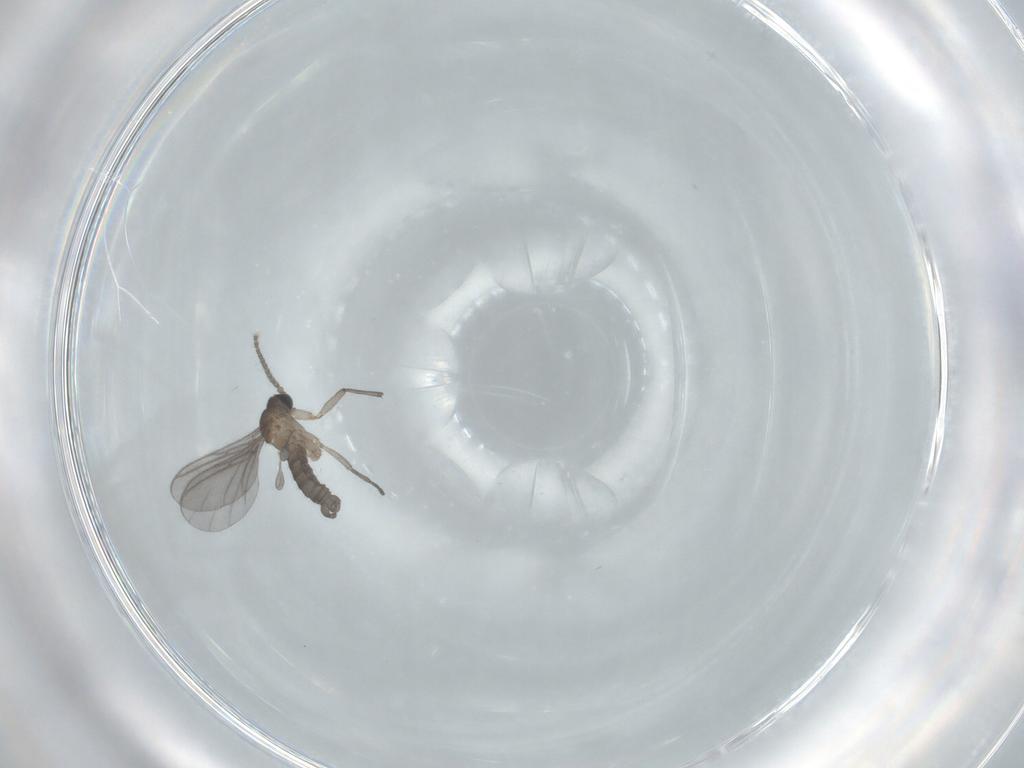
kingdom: Animalia
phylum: Arthropoda
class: Insecta
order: Diptera
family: Sciaridae
